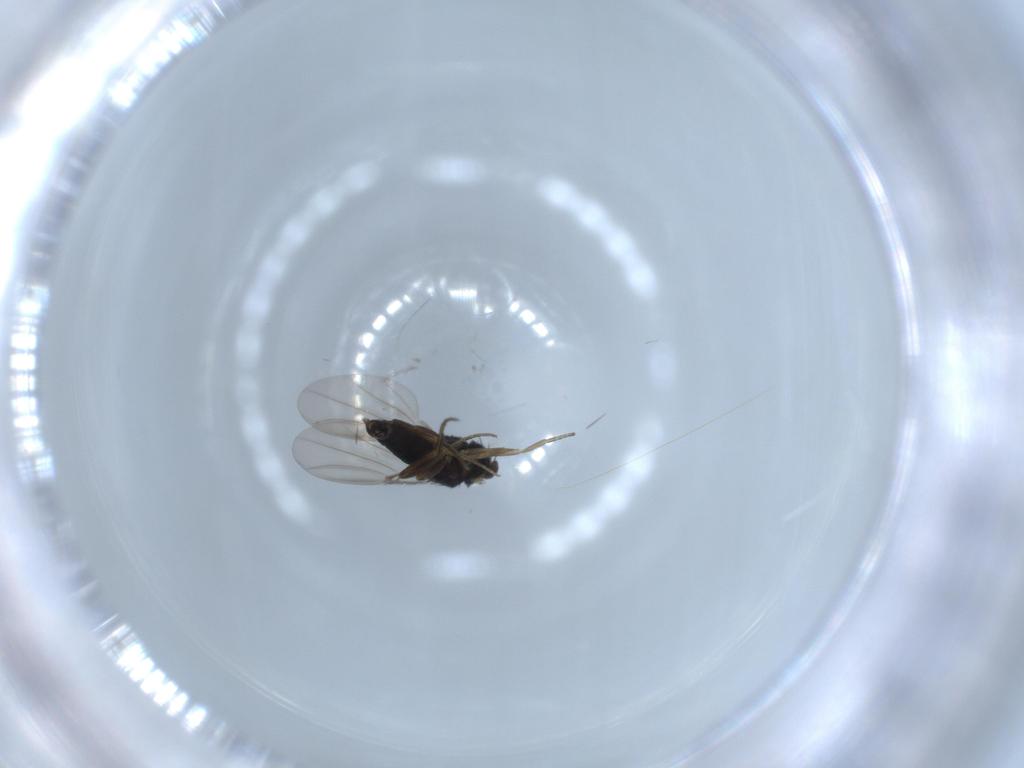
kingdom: Animalia
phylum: Arthropoda
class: Insecta
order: Diptera
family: Phoridae
